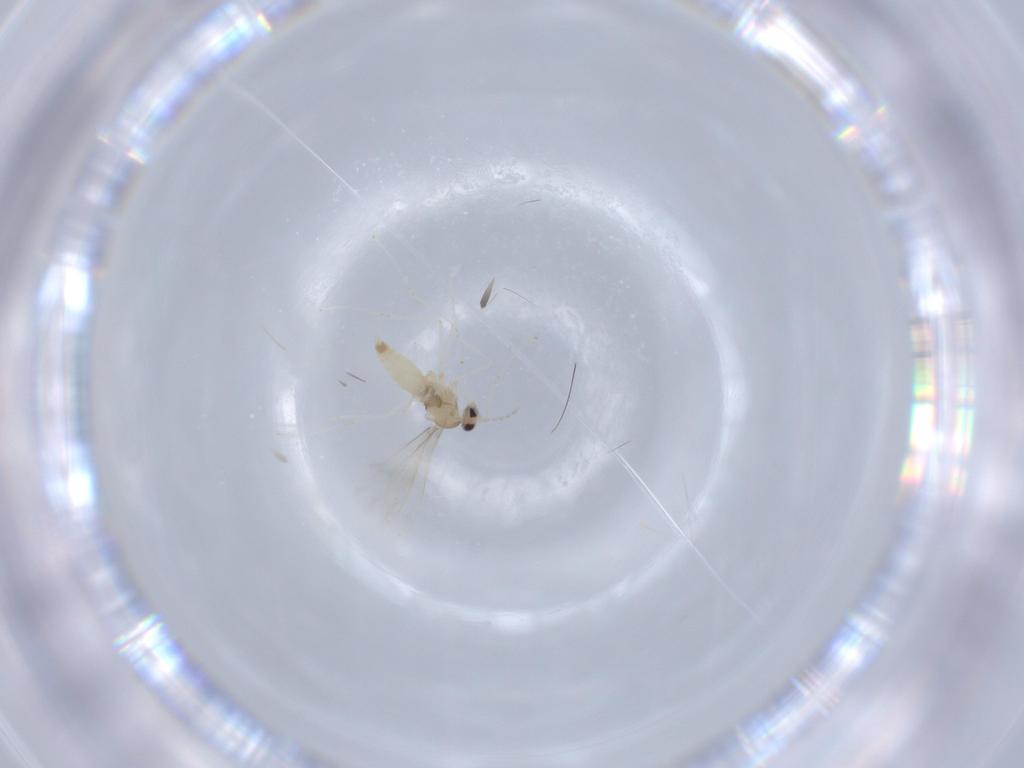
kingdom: Animalia
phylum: Arthropoda
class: Insecta
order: Diptera
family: Cecidomyiidae
